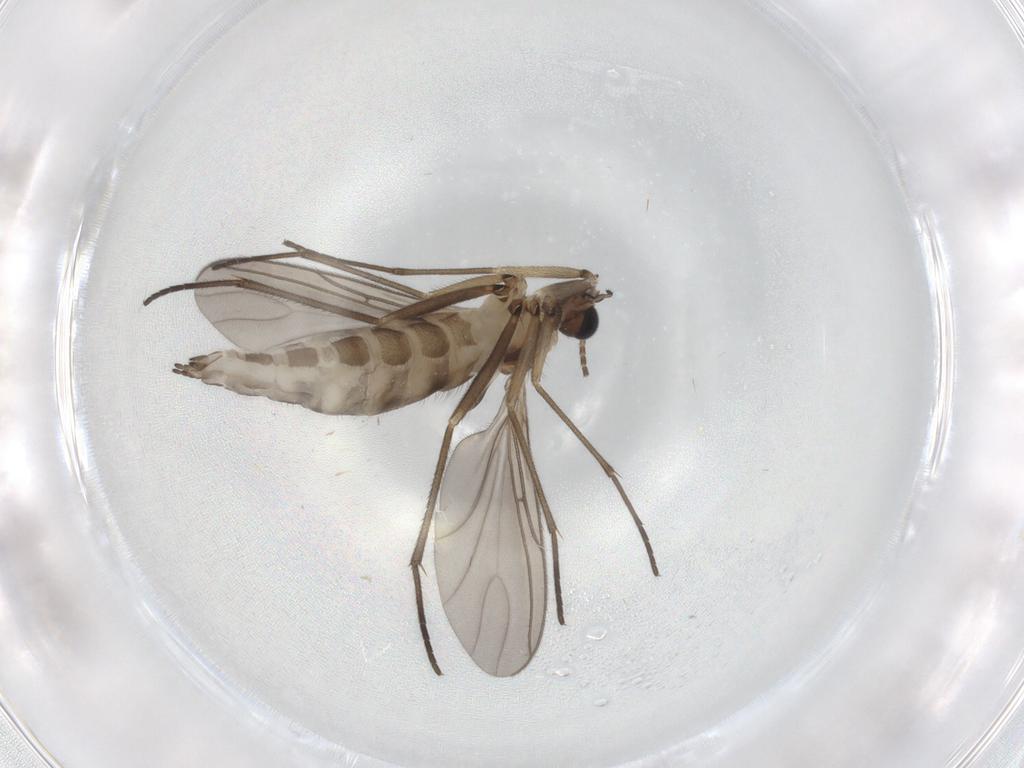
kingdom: Animalia
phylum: Arthropoda
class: Insecta
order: Diptera
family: Sciaridae
